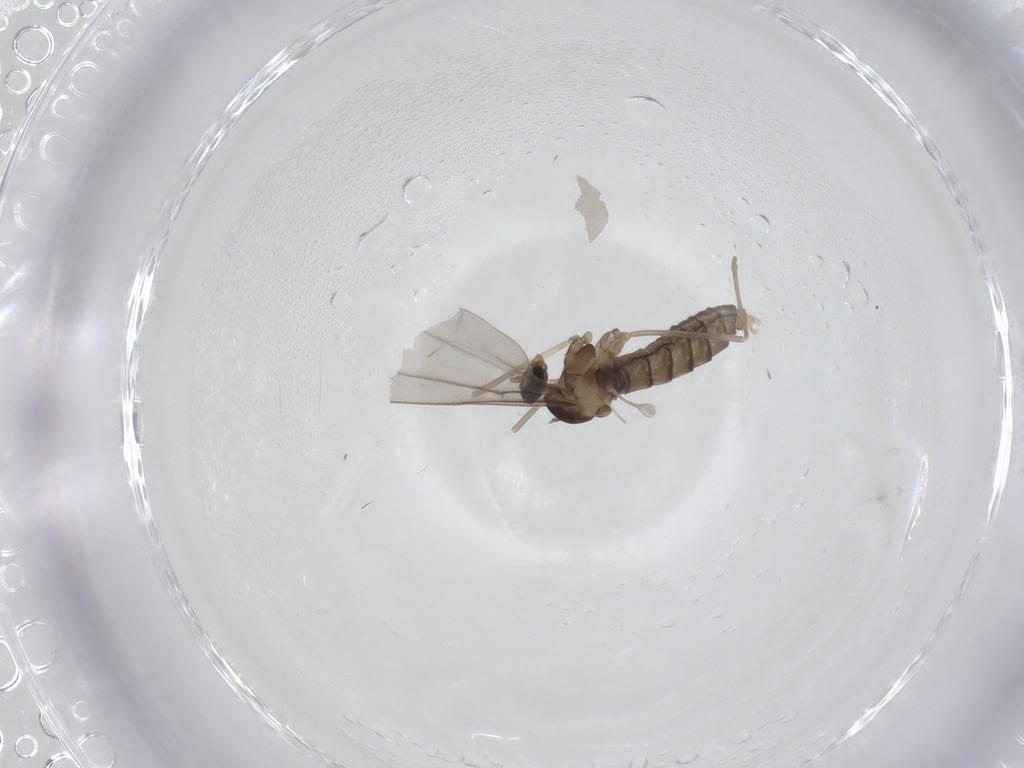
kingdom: Animalia
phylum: Arthropoda
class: Insecta
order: Diptera
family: Cecidomyiidae
